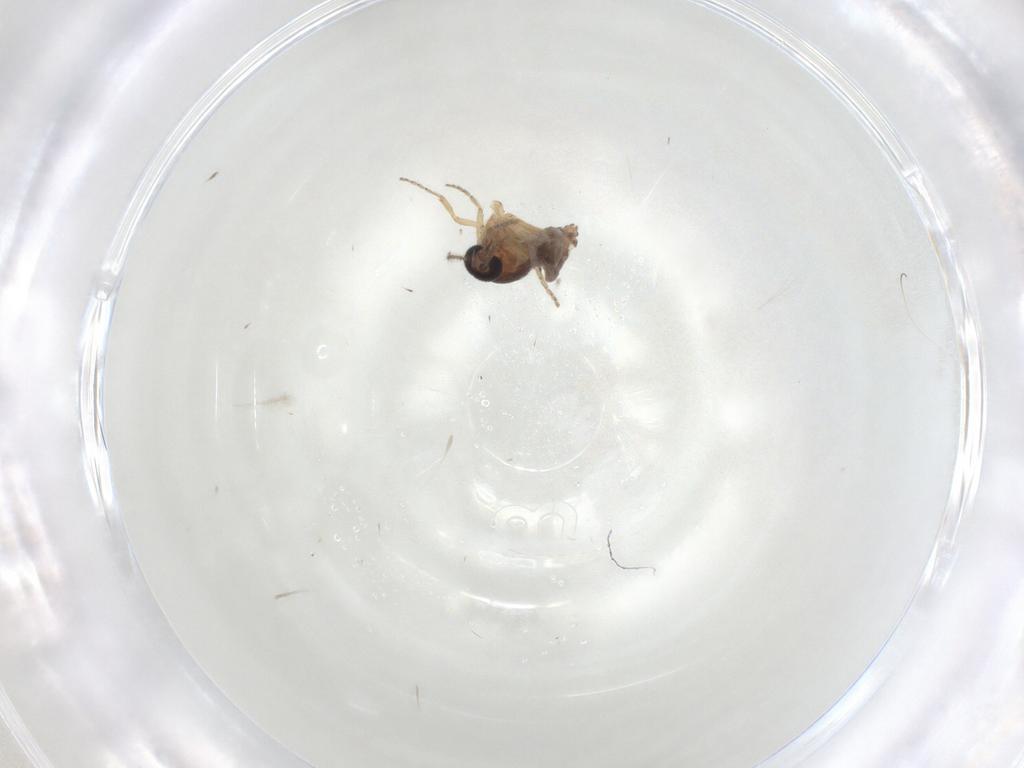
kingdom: Animalia
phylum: Arthropoda
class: Insecta
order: Diptera
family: Ceratopogonidae
